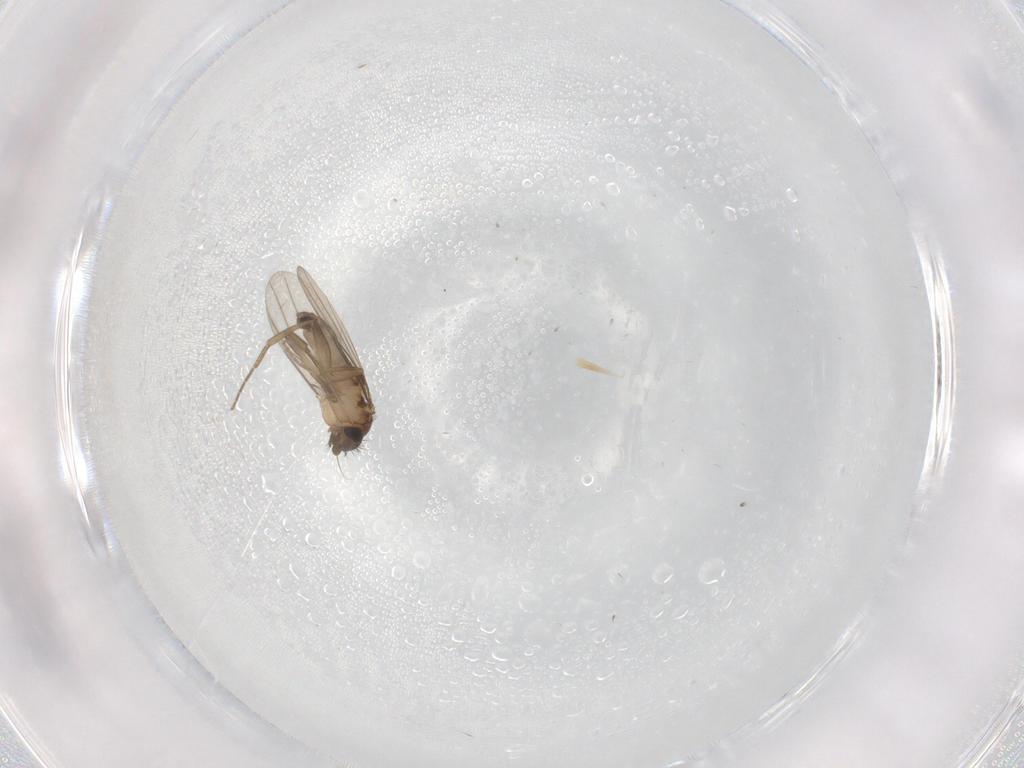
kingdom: Animalia
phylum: Arthropoda
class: Insecta
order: Diptera
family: Phoridae
